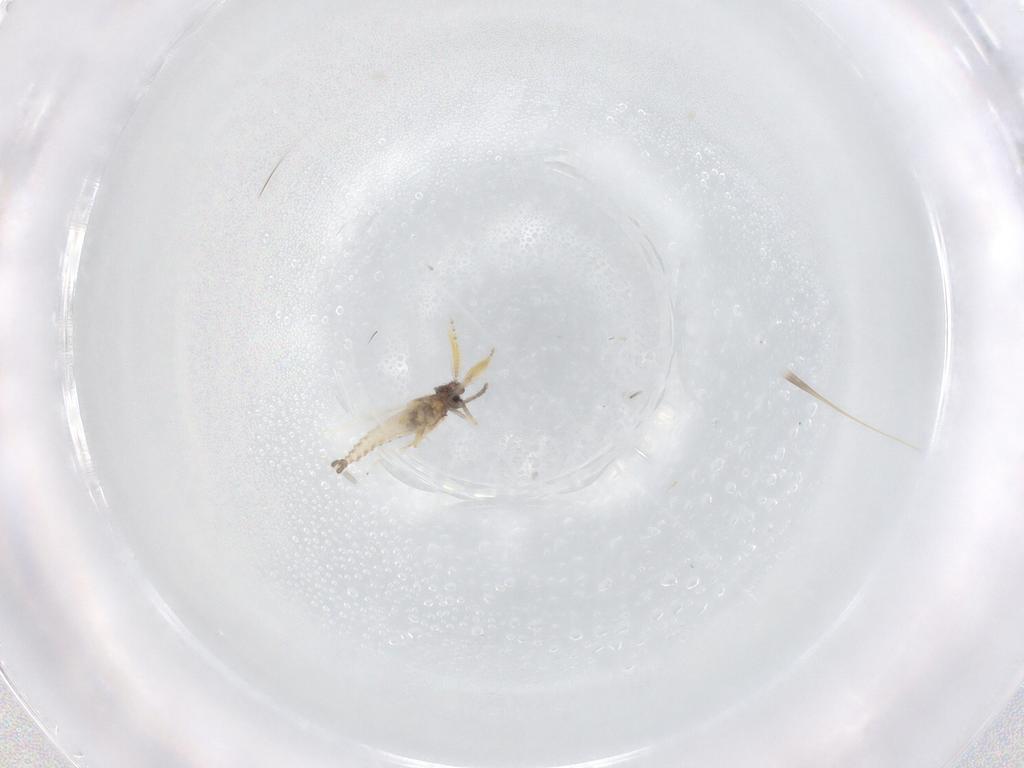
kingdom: Animalia
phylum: Arthropoda
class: Insecta
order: Diptera
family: Ceratopogonidae
